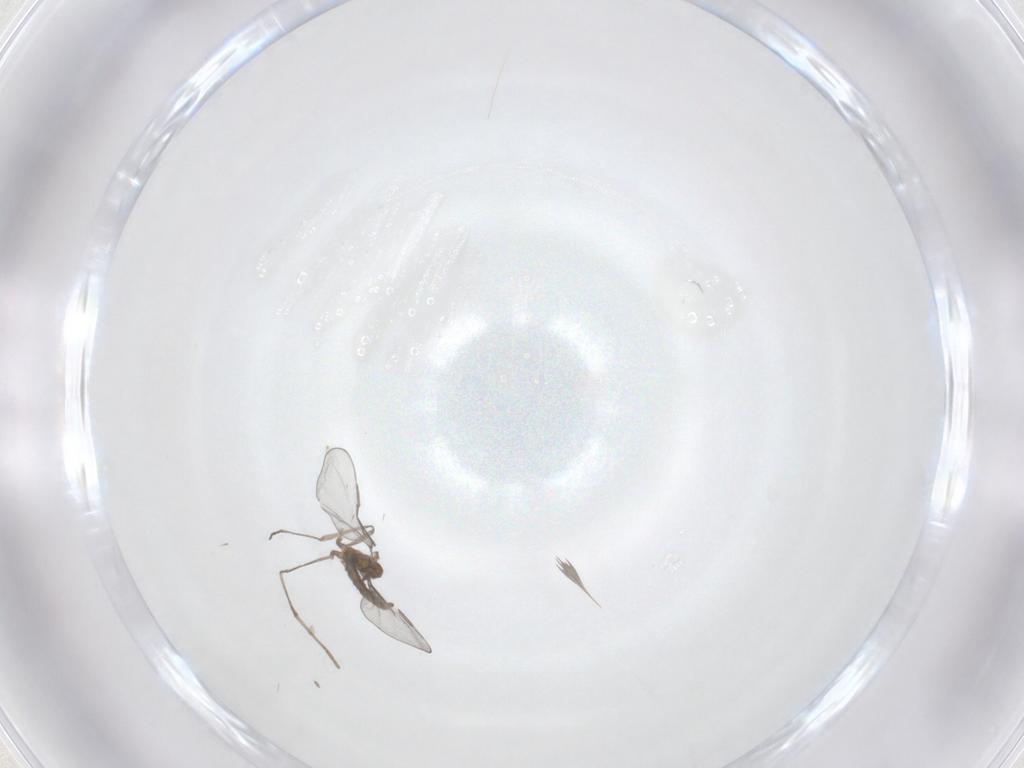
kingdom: Animalia
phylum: Arthropoda
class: Insecta
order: Diptera
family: Cecidomyiidae
